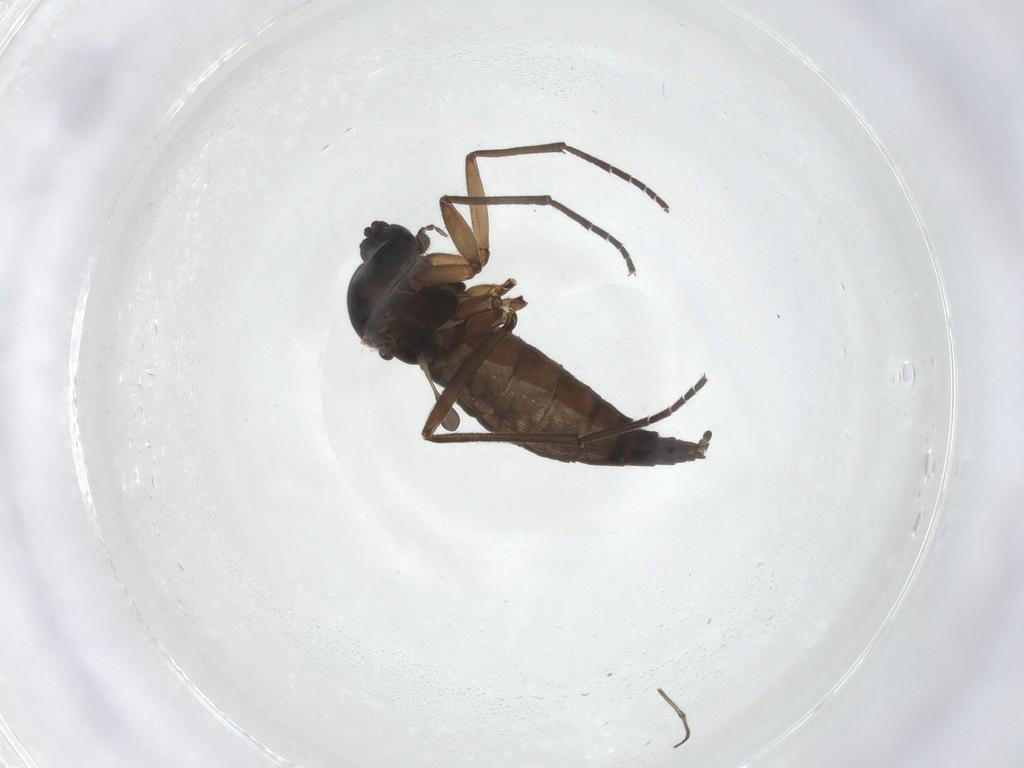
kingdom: Animalia
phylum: Arthropoda
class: Insecta
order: Diptera
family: Sciaridae
